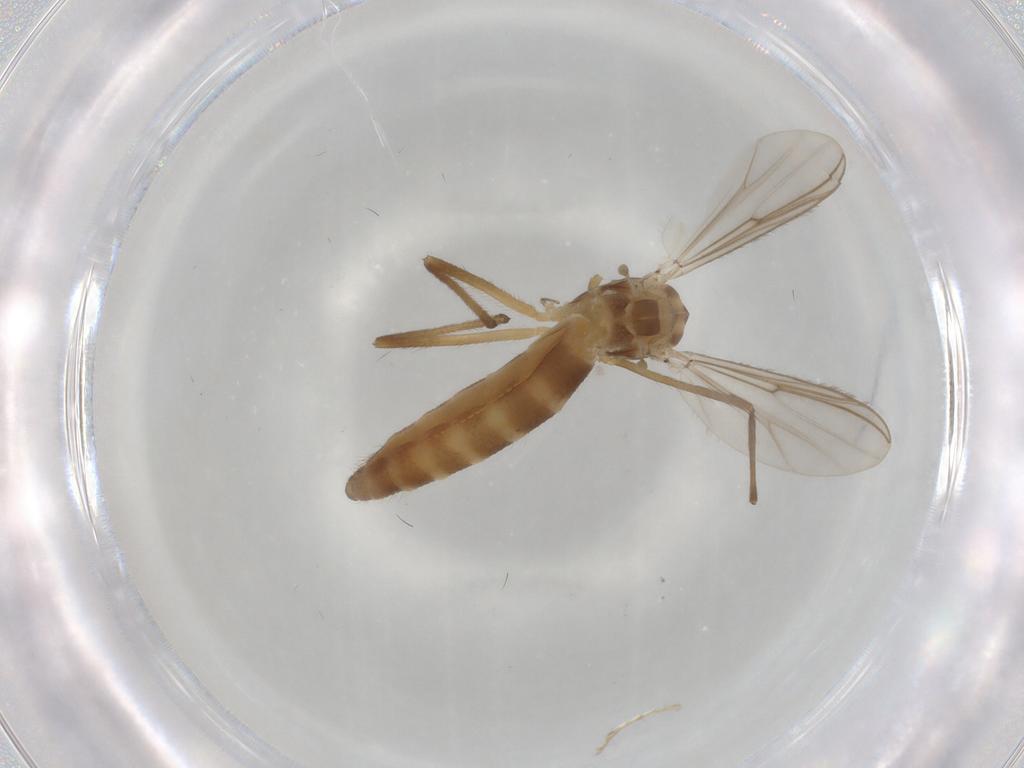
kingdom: Animalia
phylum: Arthropoda
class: Insecta
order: Diptera
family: Chironomidae
